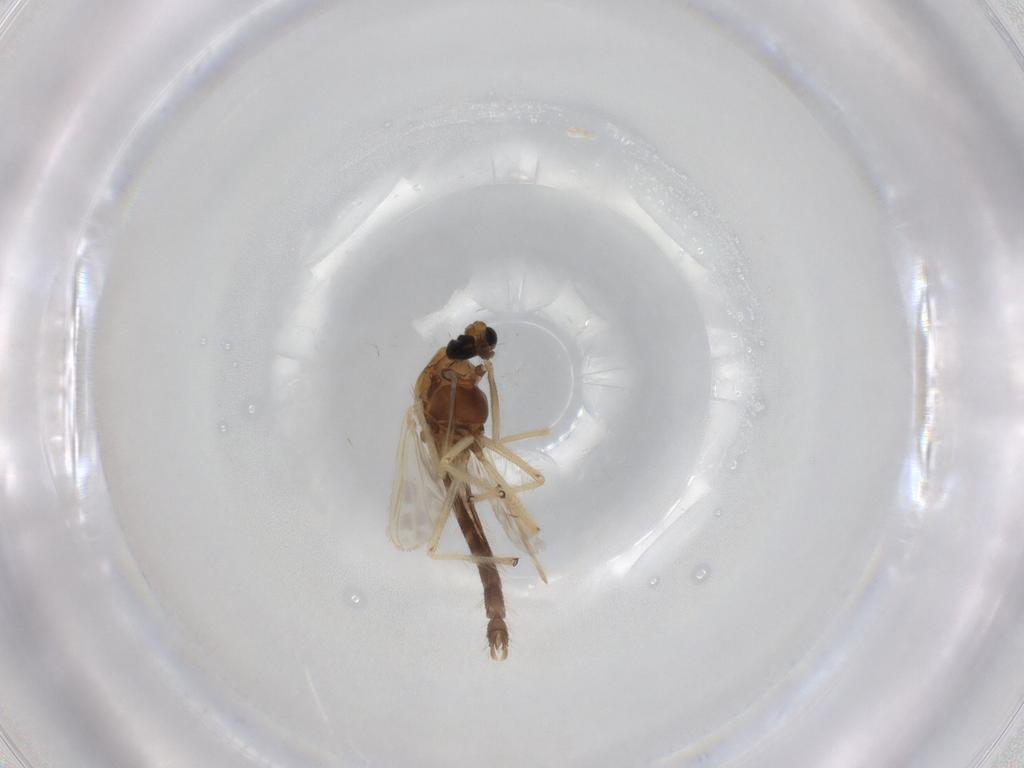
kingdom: Animalia
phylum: Arthropoda
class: Insecta
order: Diptera
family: Chironomidae
